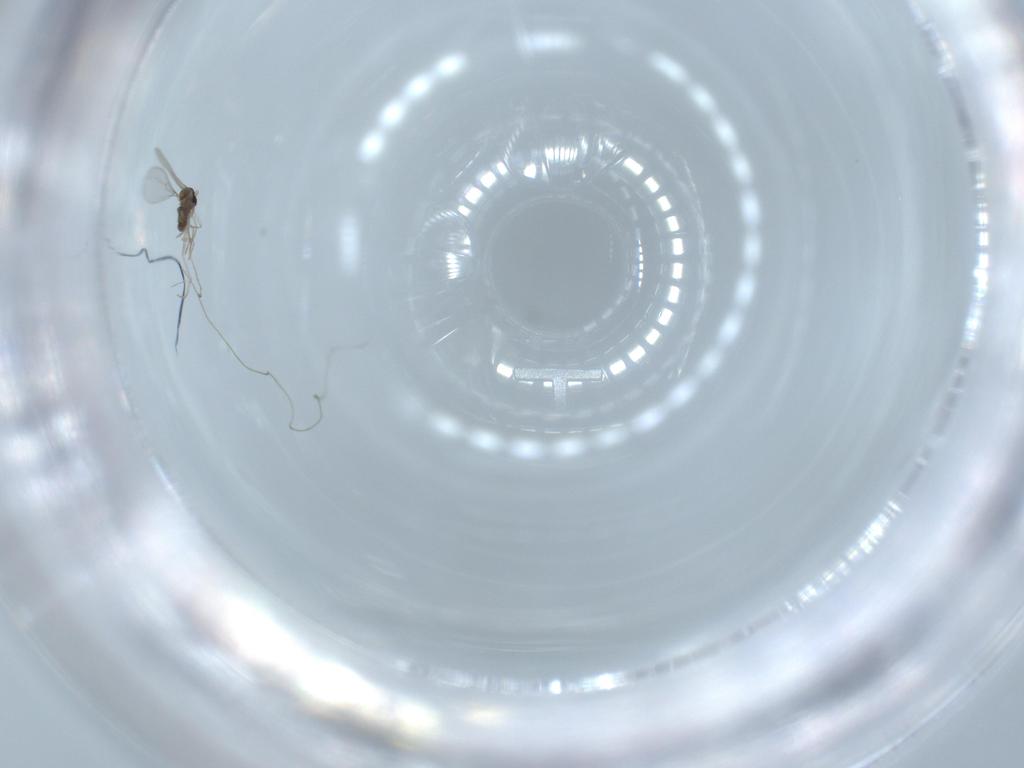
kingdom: Animalia
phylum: Arthropoda
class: Insecta
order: Diptera
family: Cecidomyiidae
